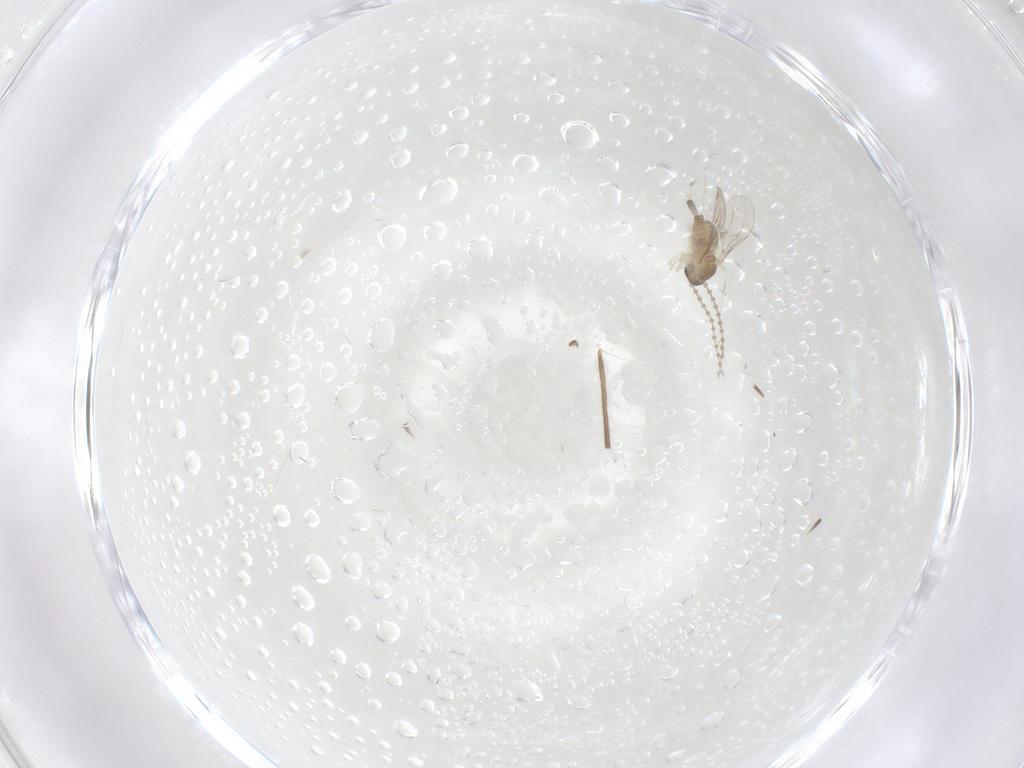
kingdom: Animalia
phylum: Arthropoda
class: Insecta
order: Diptera
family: Cecidomyiidae
